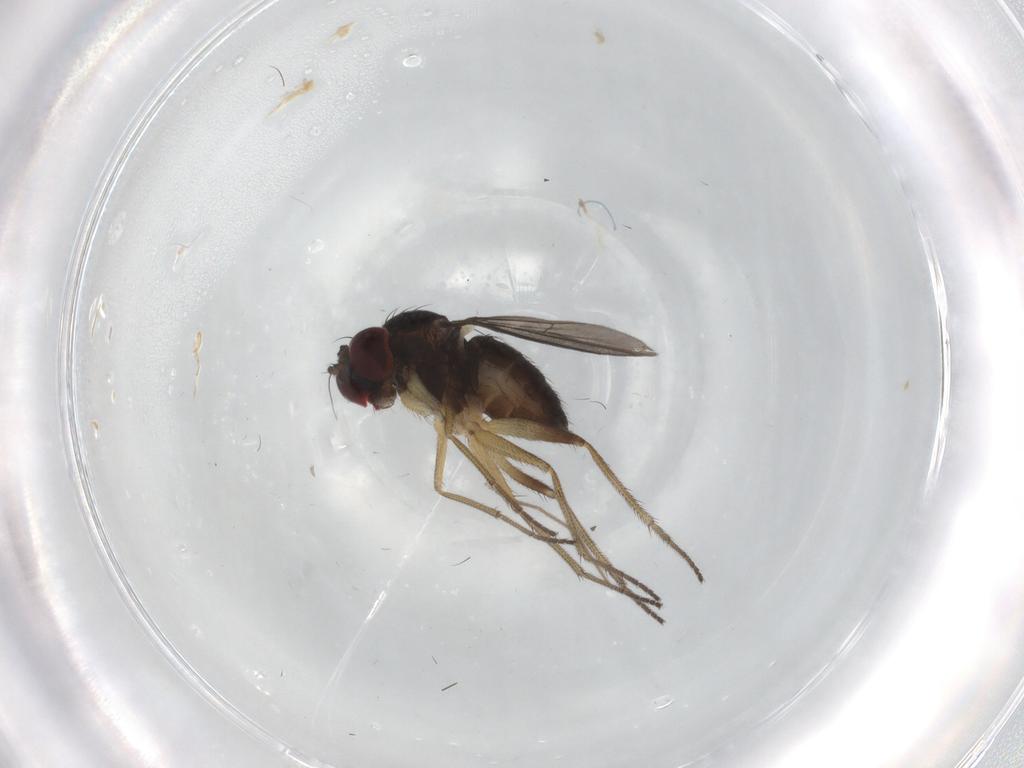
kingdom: Animalia
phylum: Arthropoda
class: Insecta
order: Diptera
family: Dolichopodidae
